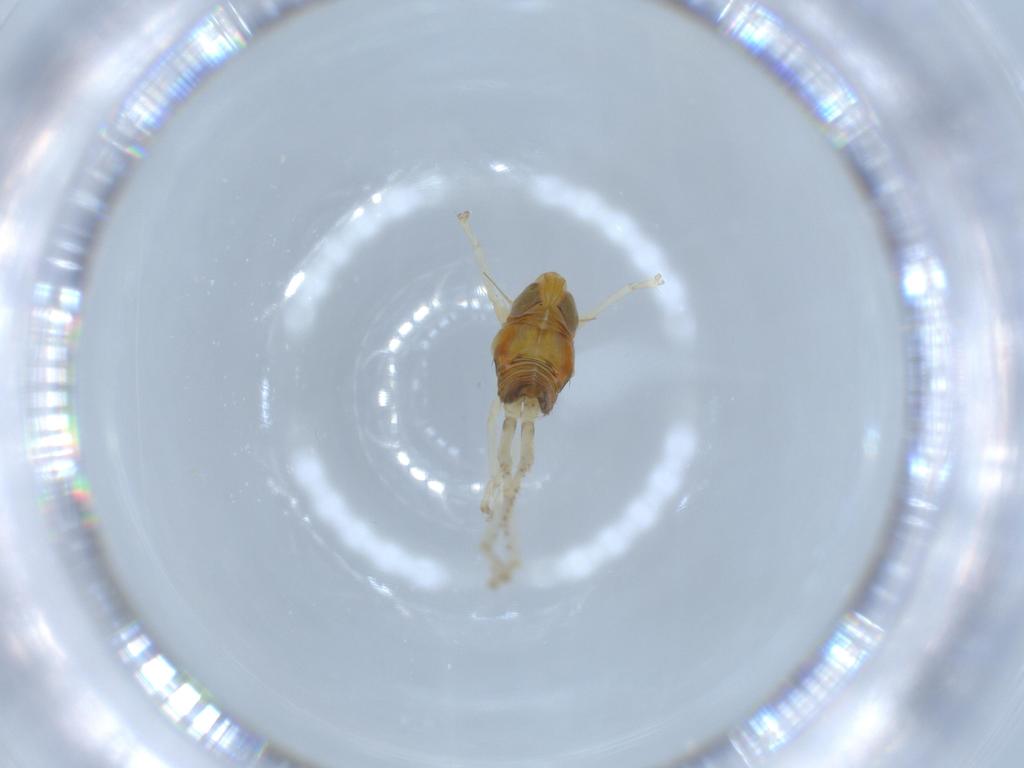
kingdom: Animalia
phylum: Arthropoda
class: Insecta
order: Hemiptera
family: Cicadellidae
